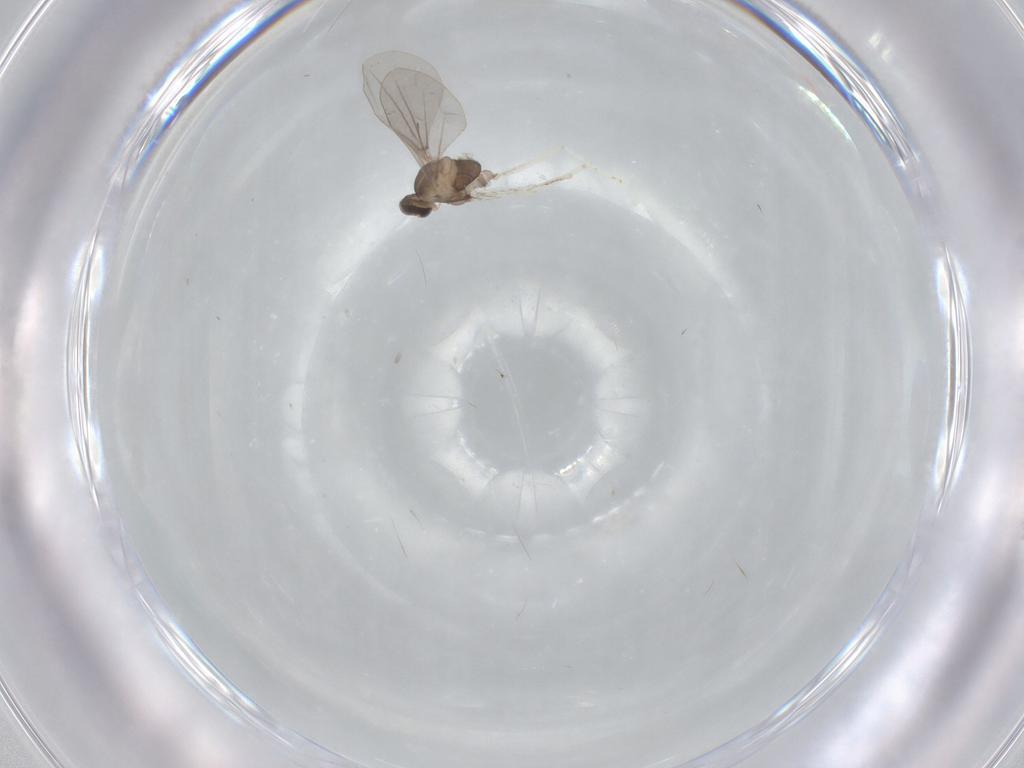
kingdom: Animalia
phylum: Arthropoda
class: Insecta
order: Diptera
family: Cecidomyiidae
